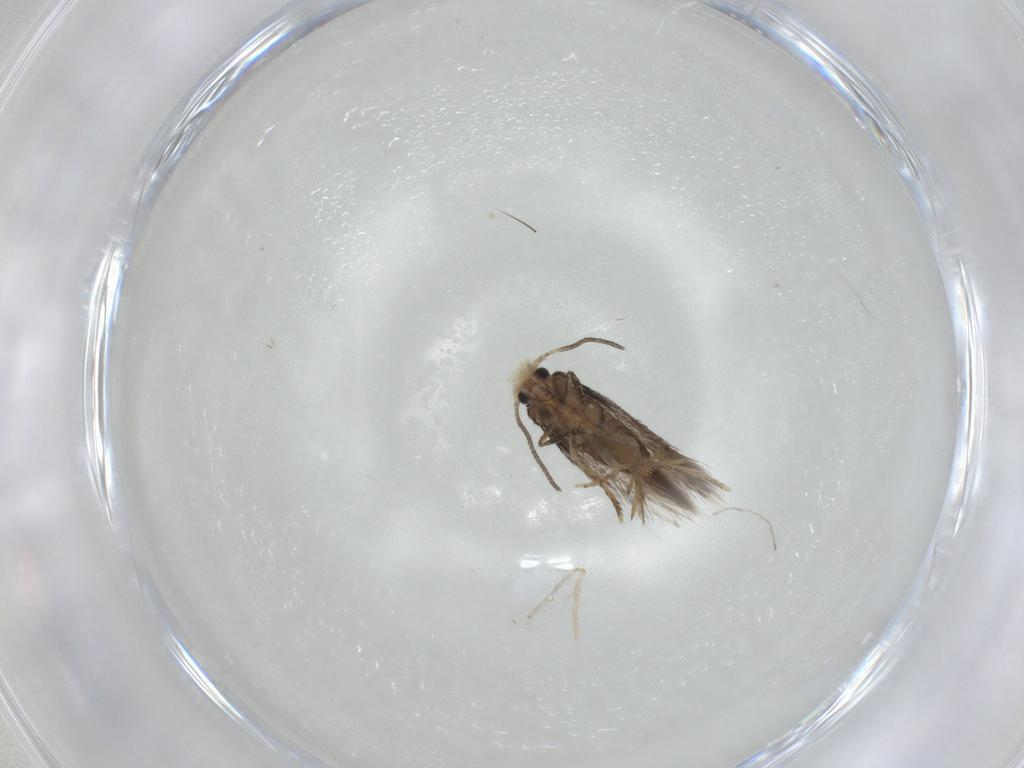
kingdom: Animalia
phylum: Arthropoda
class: Insecta
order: Lepidoptera
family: Nepticulidae
